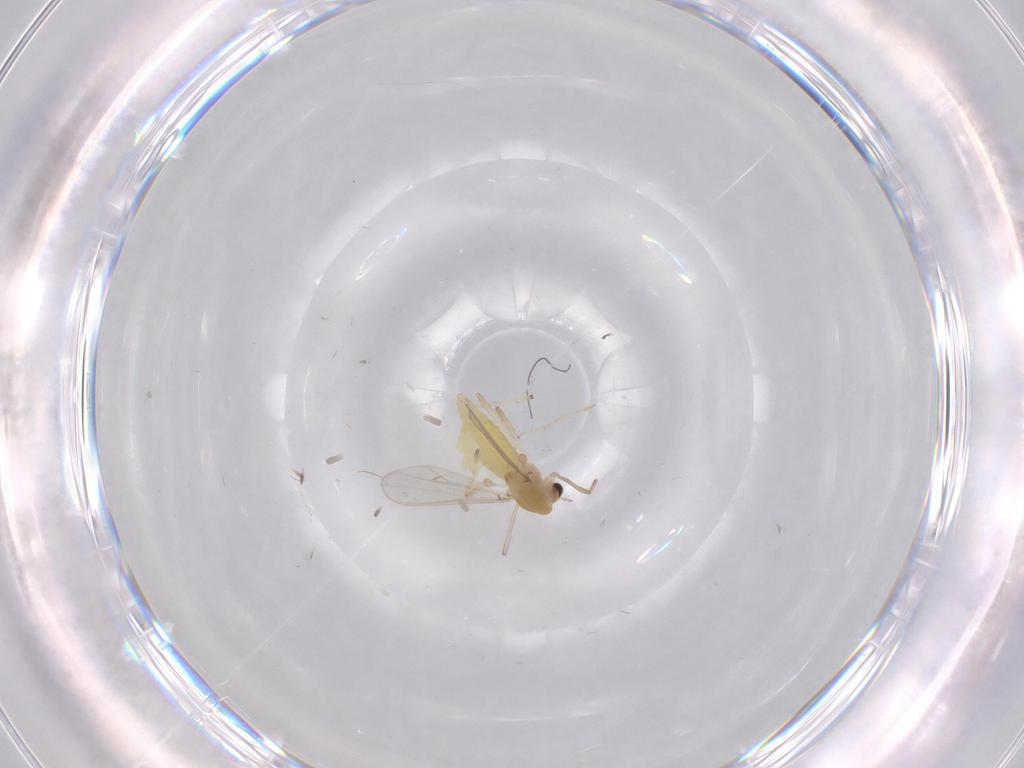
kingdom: Animalia
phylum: Arthropoda
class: Insecta
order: Diptera
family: Chironomidae
